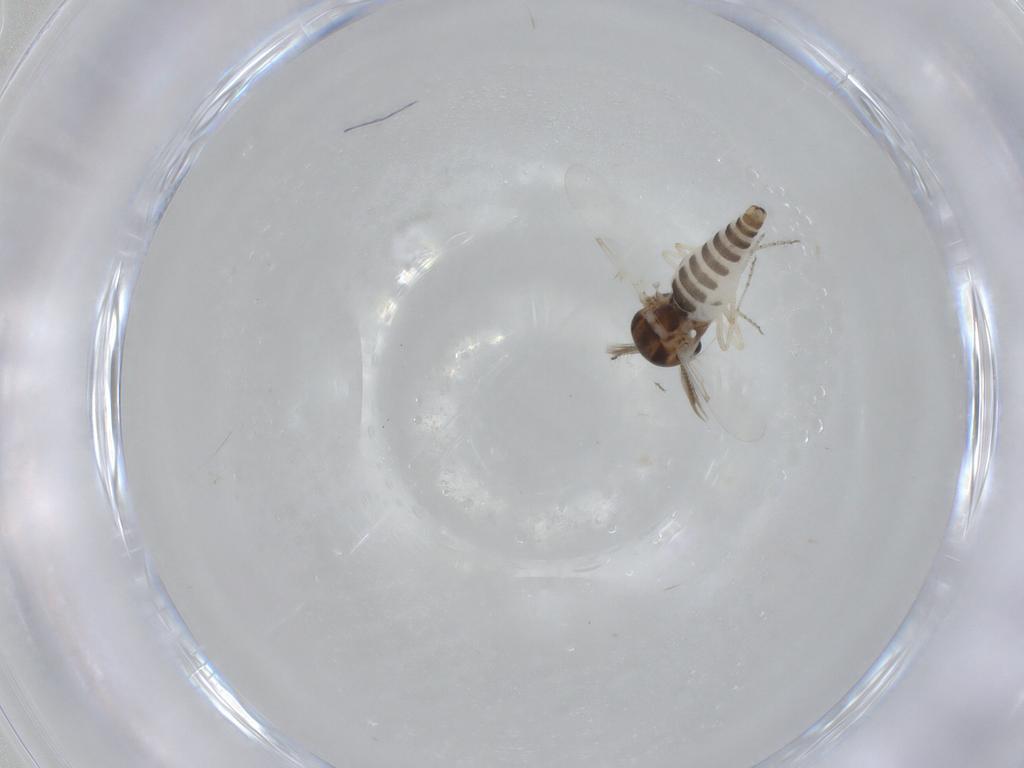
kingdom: Animalia
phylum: Arthropoda
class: Insecta
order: Diptera
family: Ceratopogonidae
